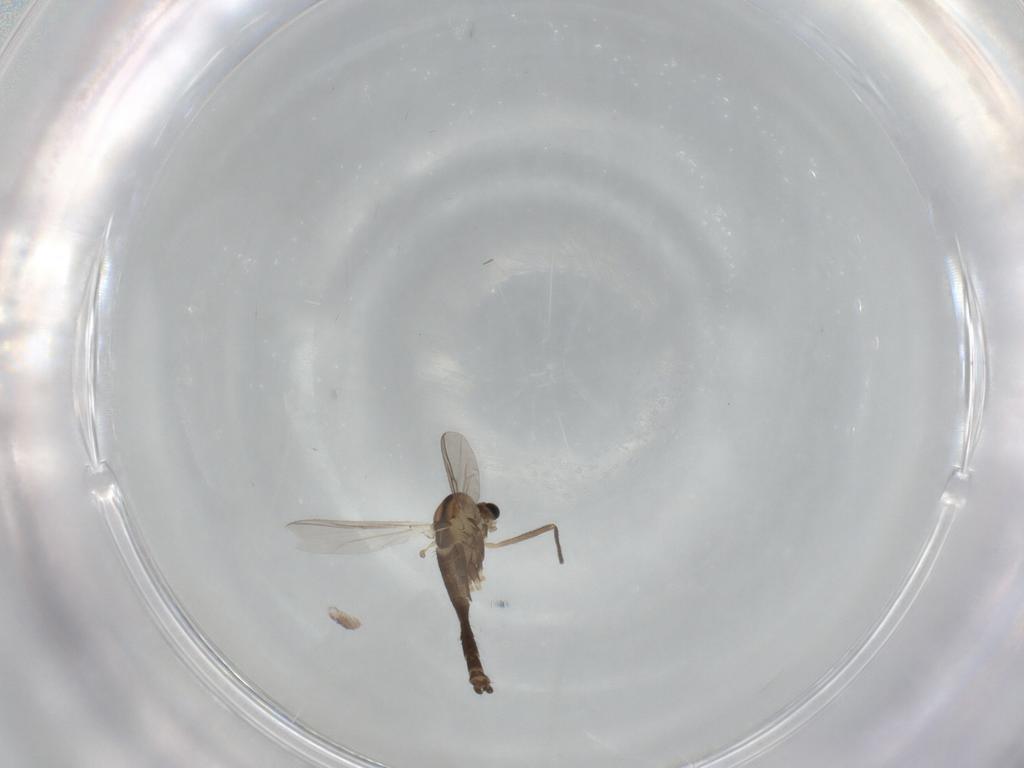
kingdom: Animalia
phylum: Arthropoda
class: Insecta
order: Diptera
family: Chironomidae
